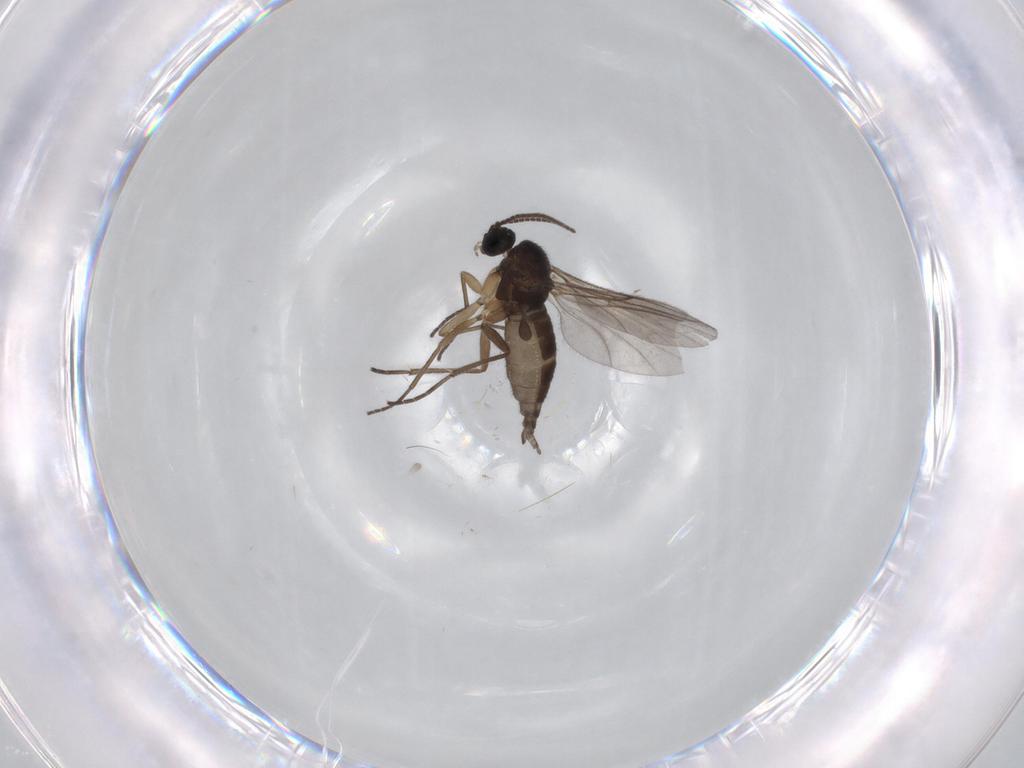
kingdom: Animalia
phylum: Arthropoda
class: Insecta
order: Diptera
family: Sciaridae
